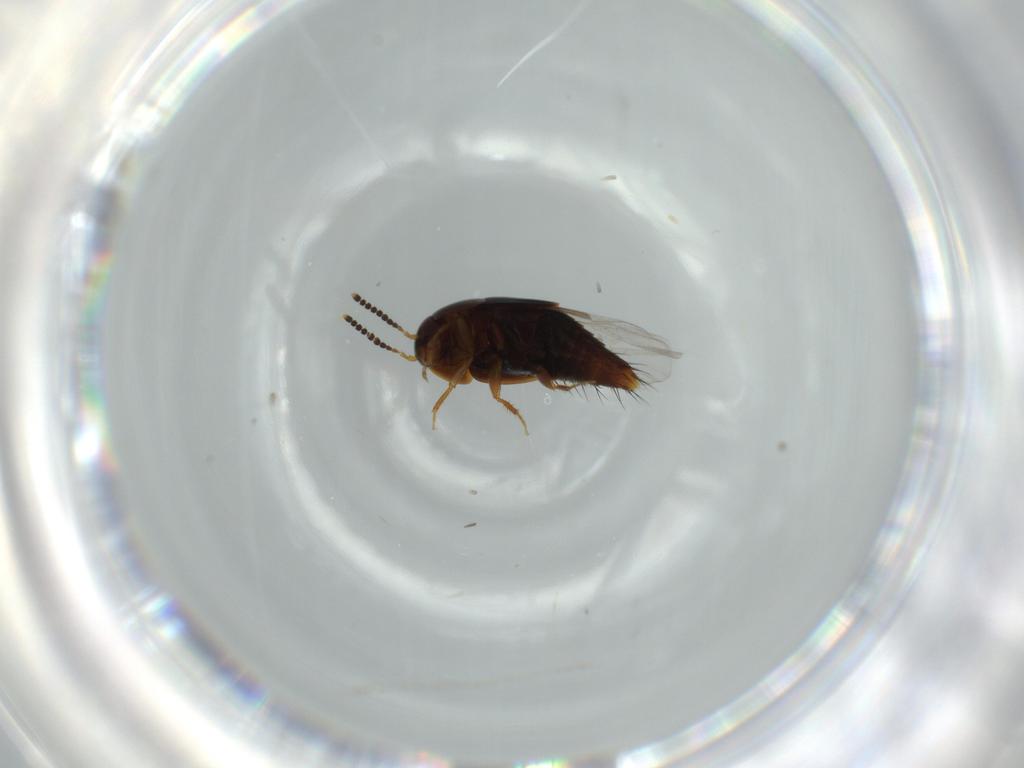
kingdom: Animalia
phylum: Arthropoda
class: Insecta
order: Coleoptera
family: Staphylinidae
